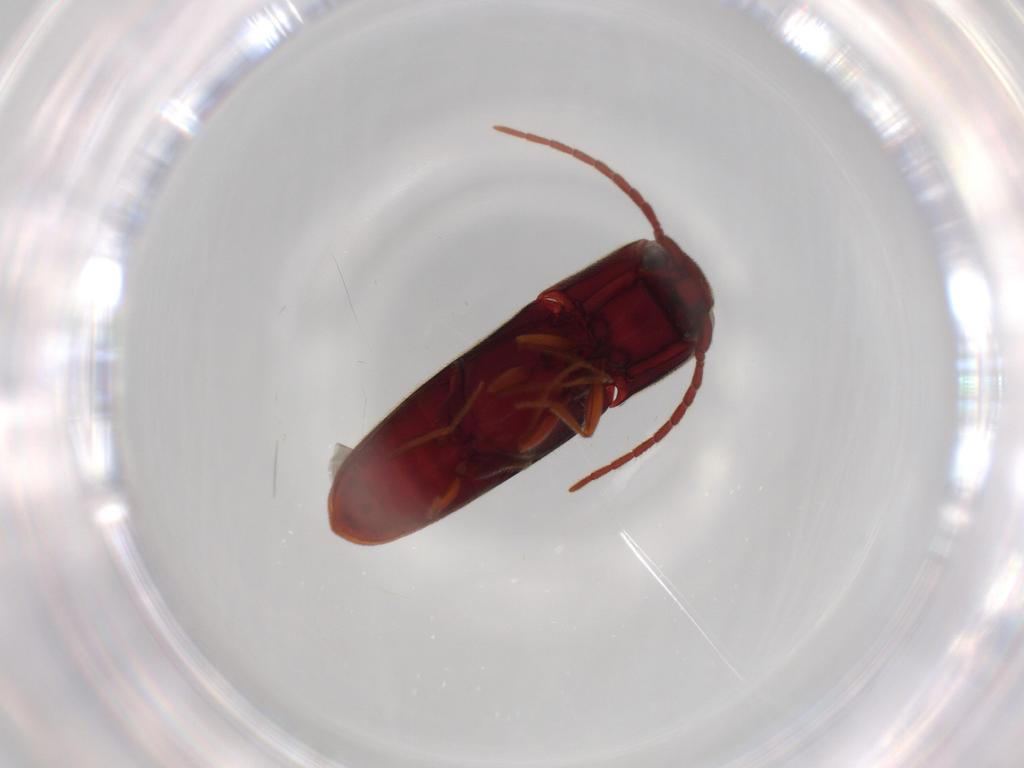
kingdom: Animalia
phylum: Arthropoda
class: Insecta
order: Coleoptera
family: Eucnemidae
